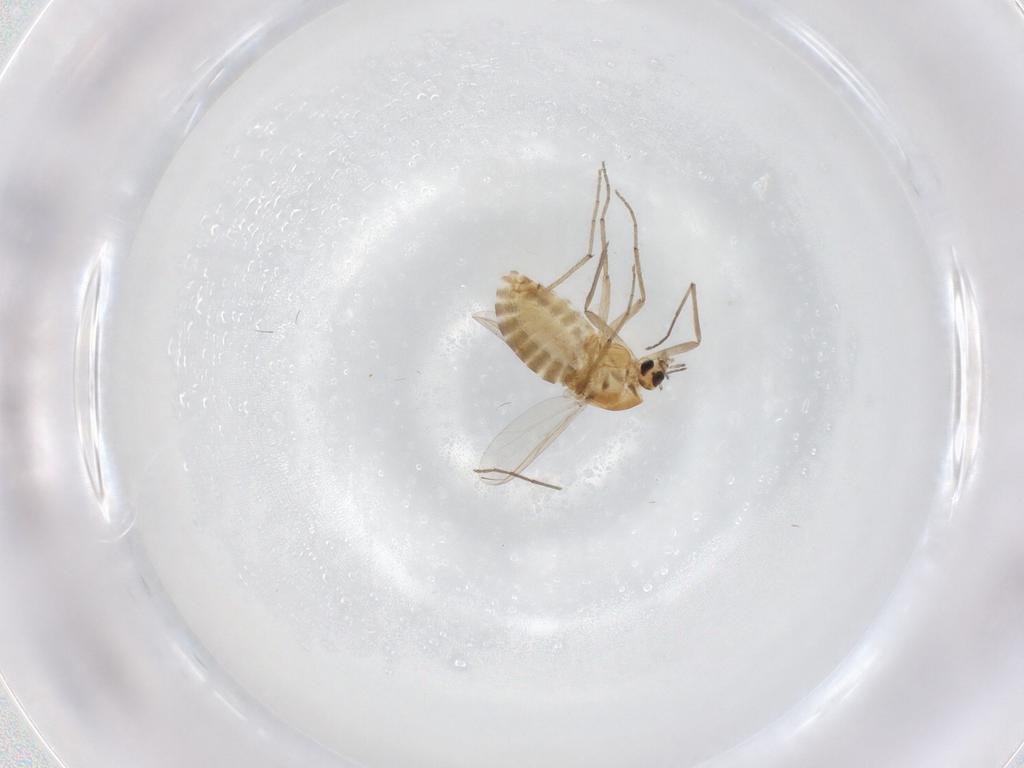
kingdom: Animalia
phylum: Arthropoda
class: Insecta
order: Diptera
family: Chironomidae
